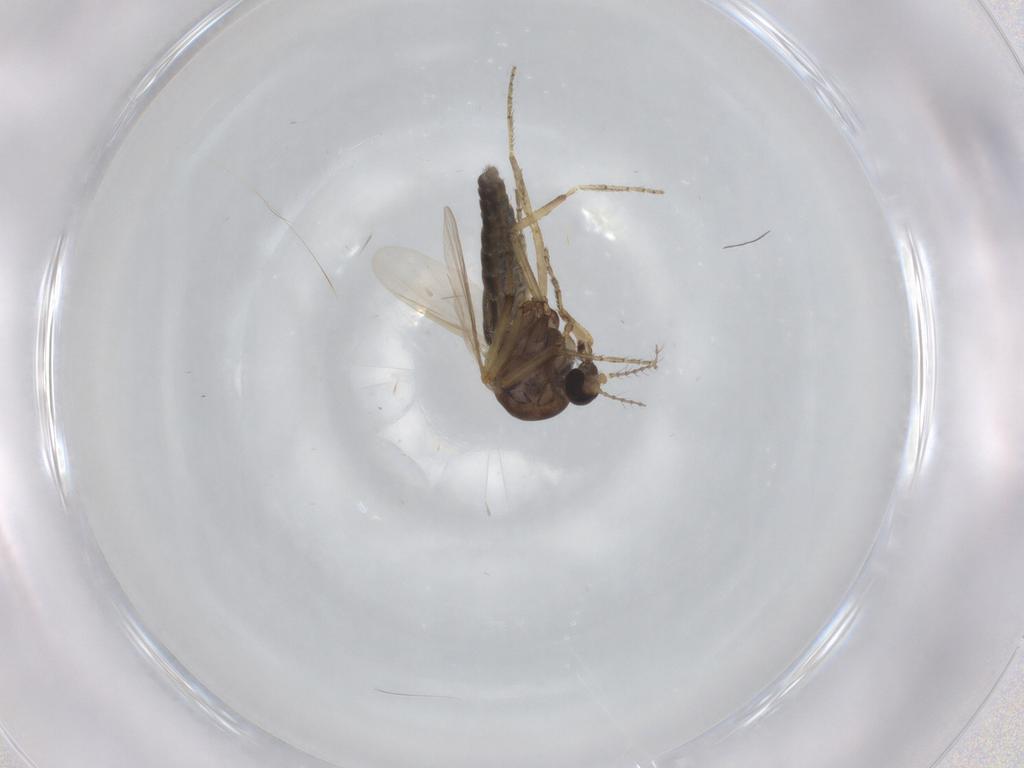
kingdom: Animalia
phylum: Arthropoda
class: Insecta
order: Diptera
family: Ceratopogonidae
